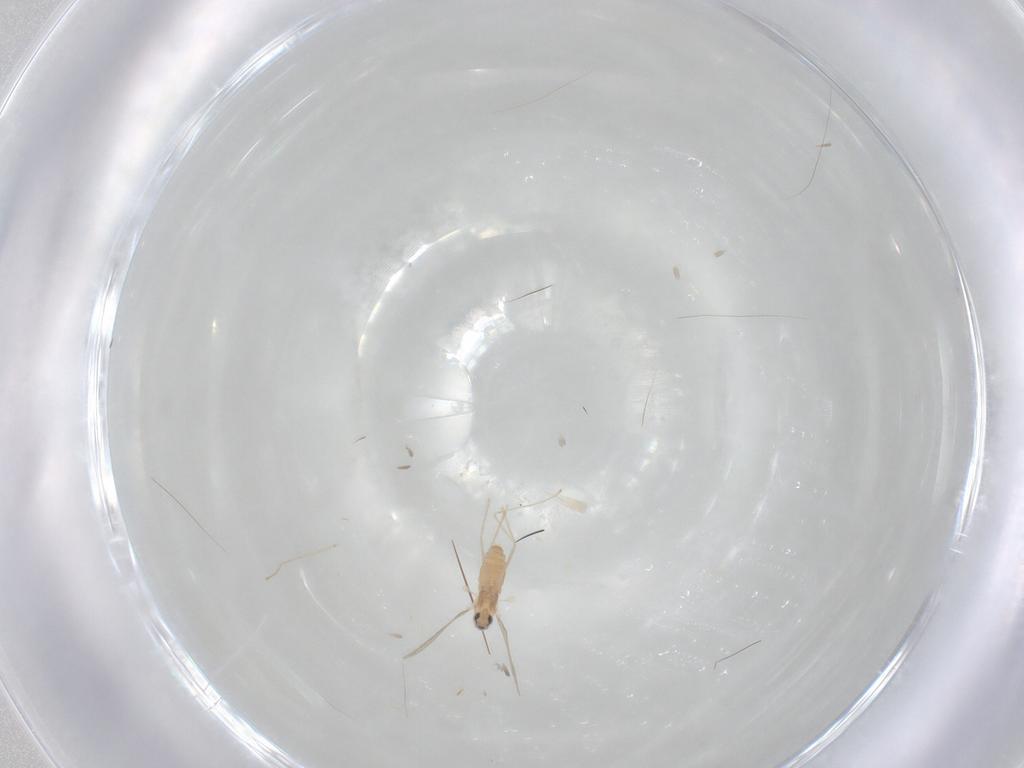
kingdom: Animalia
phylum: Arthropoda
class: Insecta
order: Diptera
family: Cecidomyiidae
